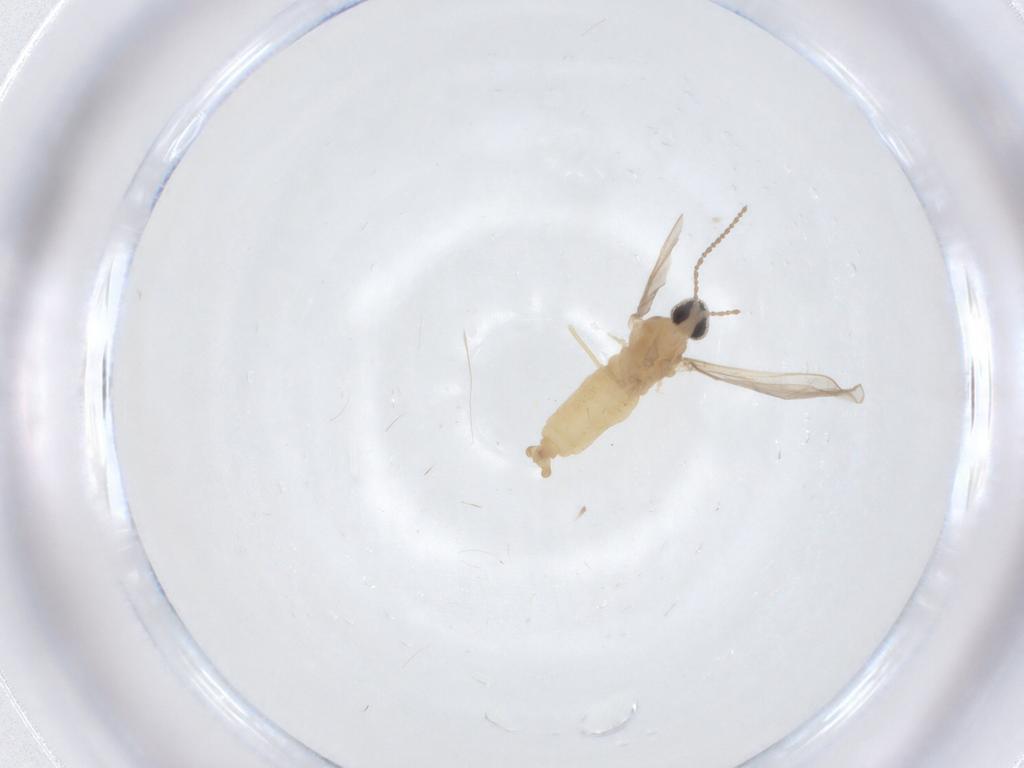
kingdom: Animalia
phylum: Arthropoda
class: Insecta
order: Diptera
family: Cecidomyiidae
